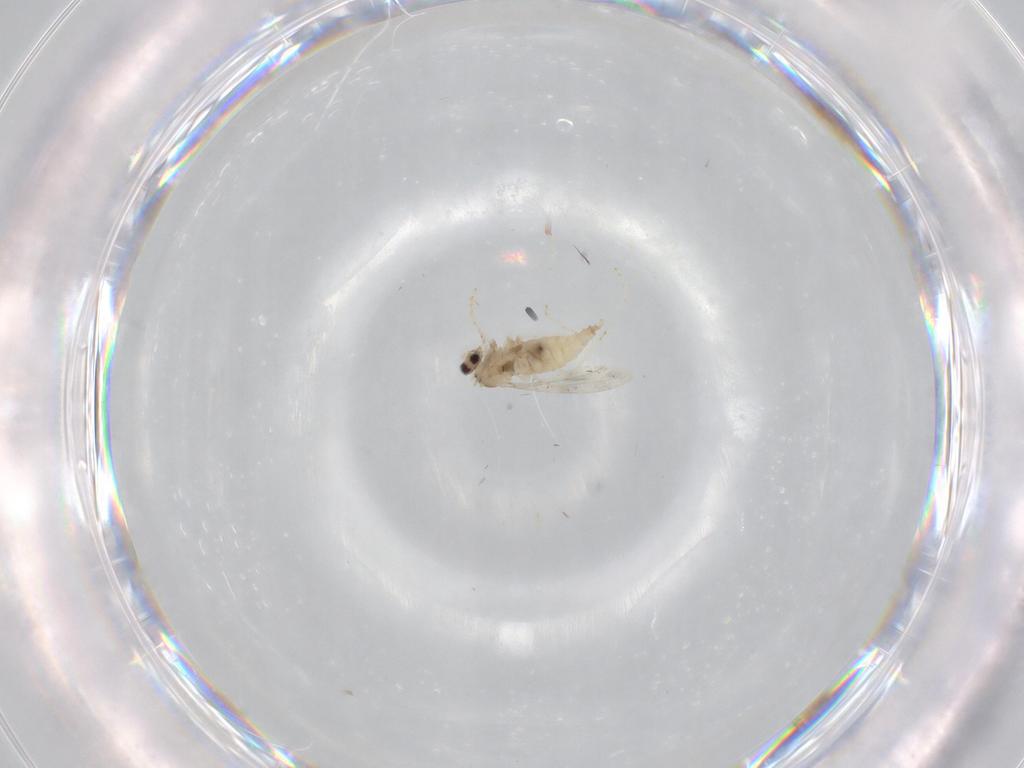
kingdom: Animalia
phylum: Arthropoda
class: Insecta
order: Diptera
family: Cecidomyiidae
